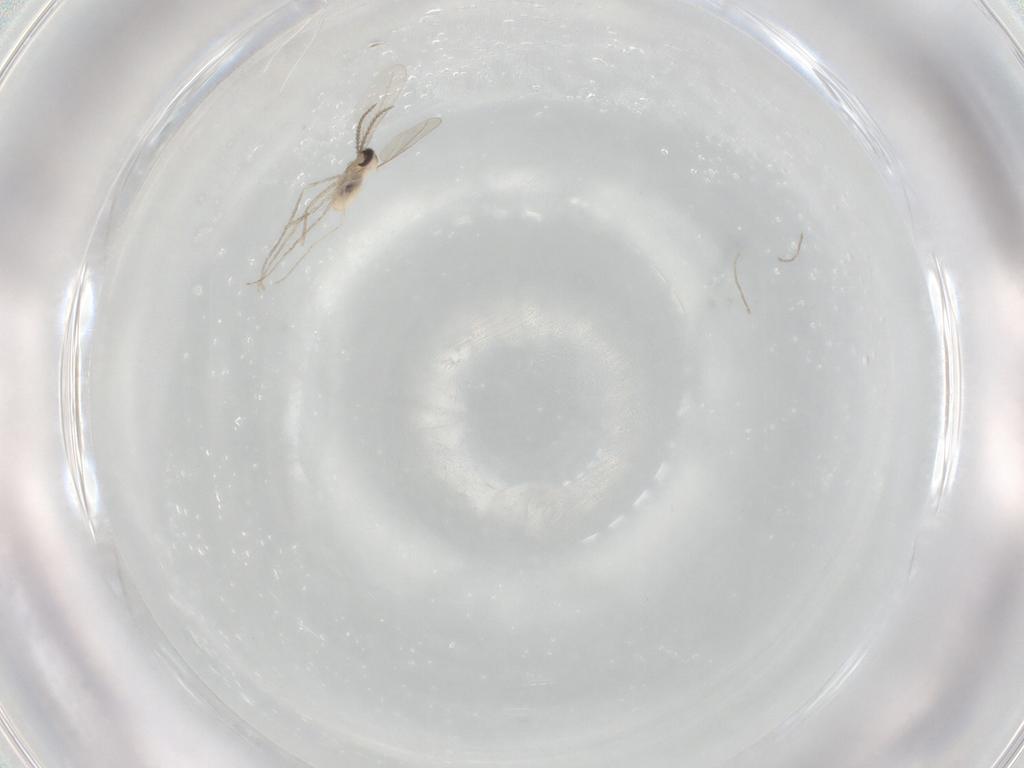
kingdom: Animalia
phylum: Arthropoda
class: Insecta
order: Diptera
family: Cecidomyiidae
